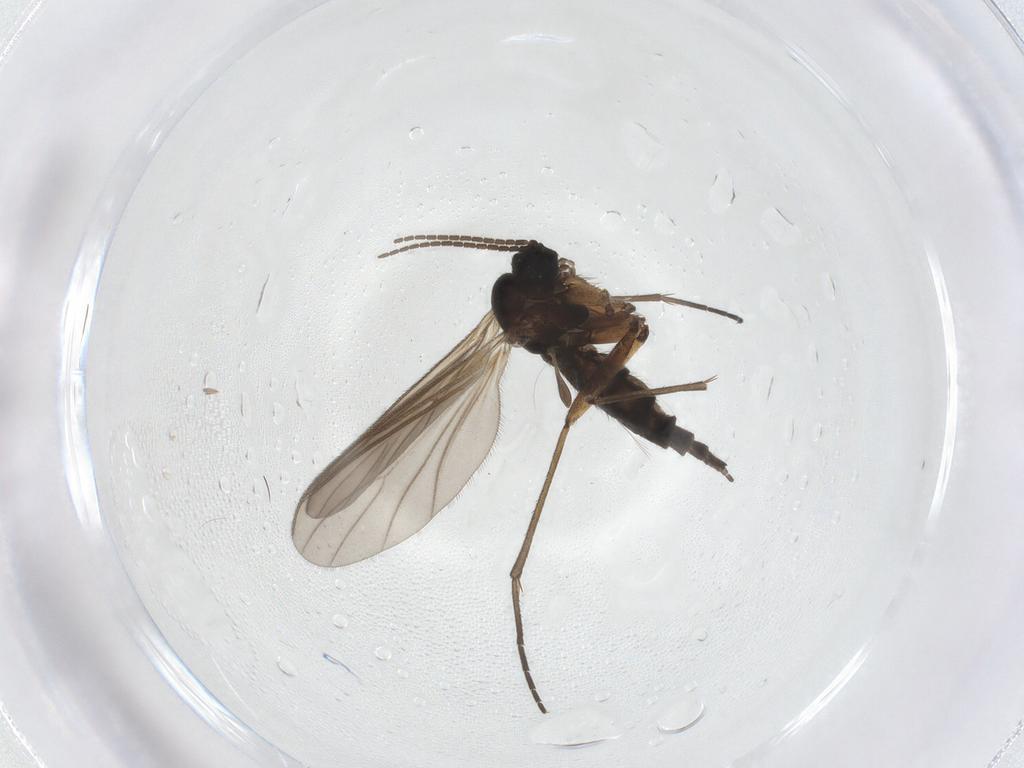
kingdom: Animalia
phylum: Arthropoda
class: Insecta
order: Diptera
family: Sciaridae
